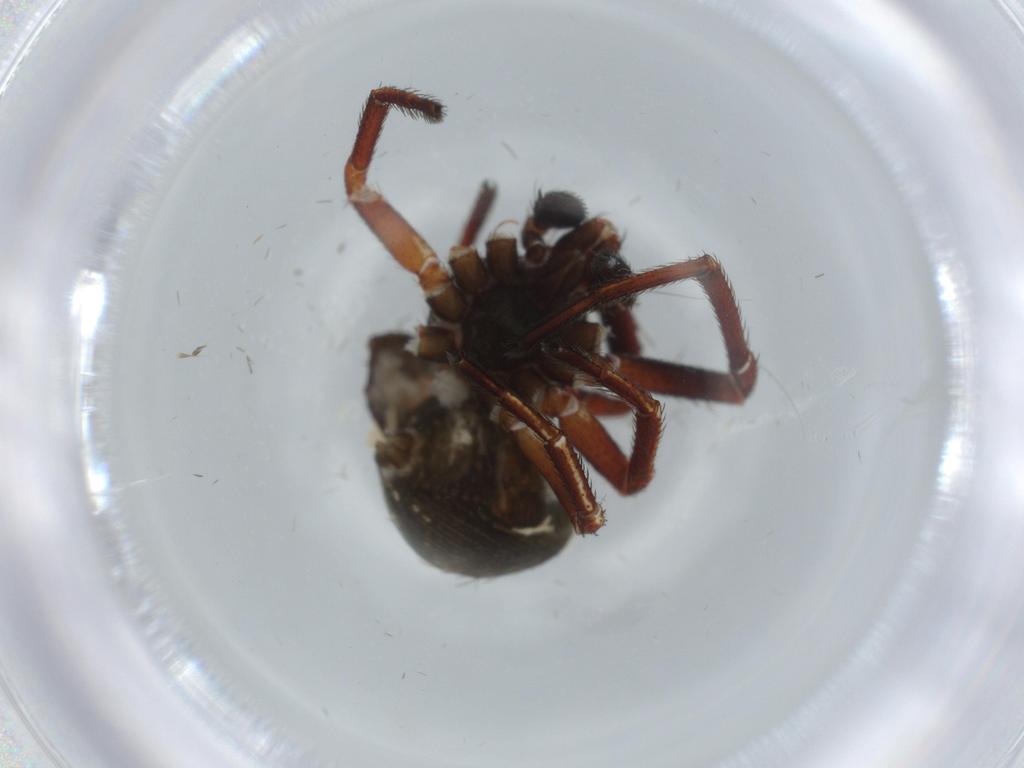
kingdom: Animalia
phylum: Arthropoda
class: Arachnida
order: Araneae
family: Thomisidae
